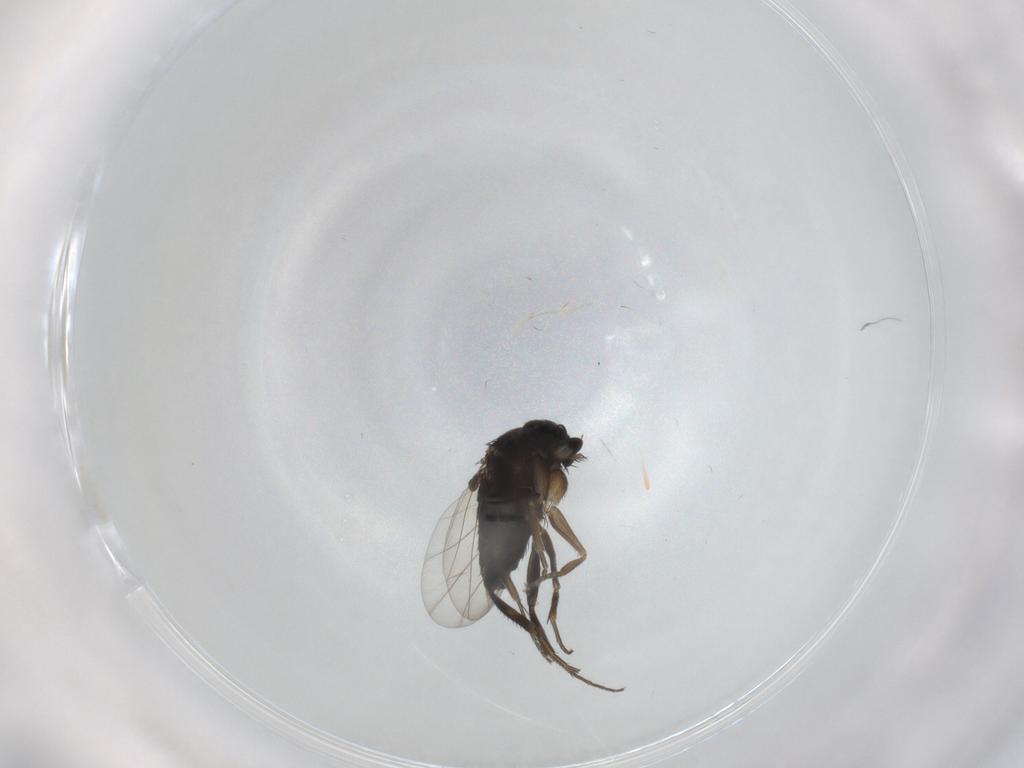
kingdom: Animalia
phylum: Arthropoda
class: Insecta
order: Diptera
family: Phoridae
